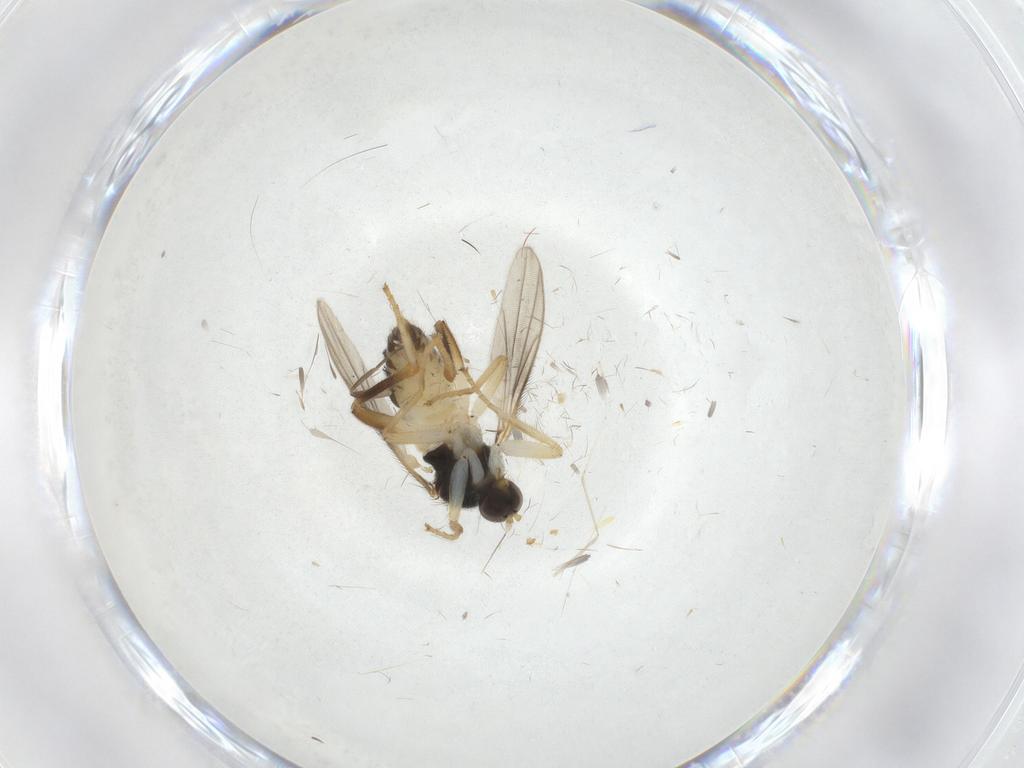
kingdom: Animalia
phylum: Arthropoda
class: Insecta
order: Diptera
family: Hybotidae
